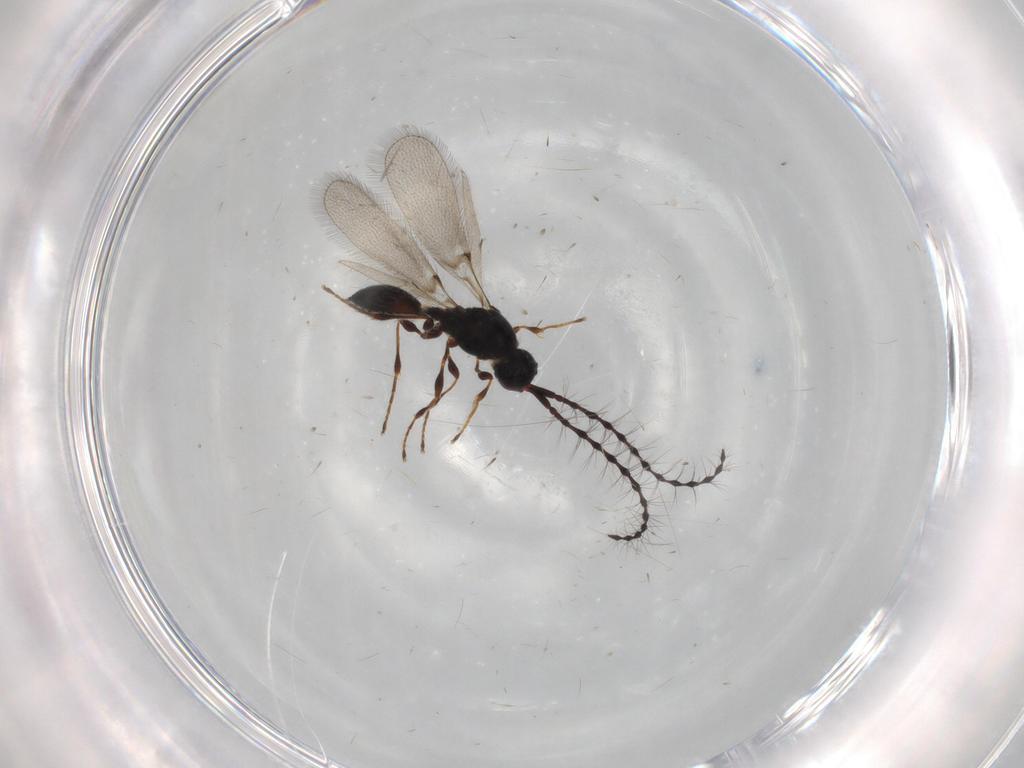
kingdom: Animalia
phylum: Arthropoda
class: Insecta
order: Hymenoptera
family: Diapriidae
